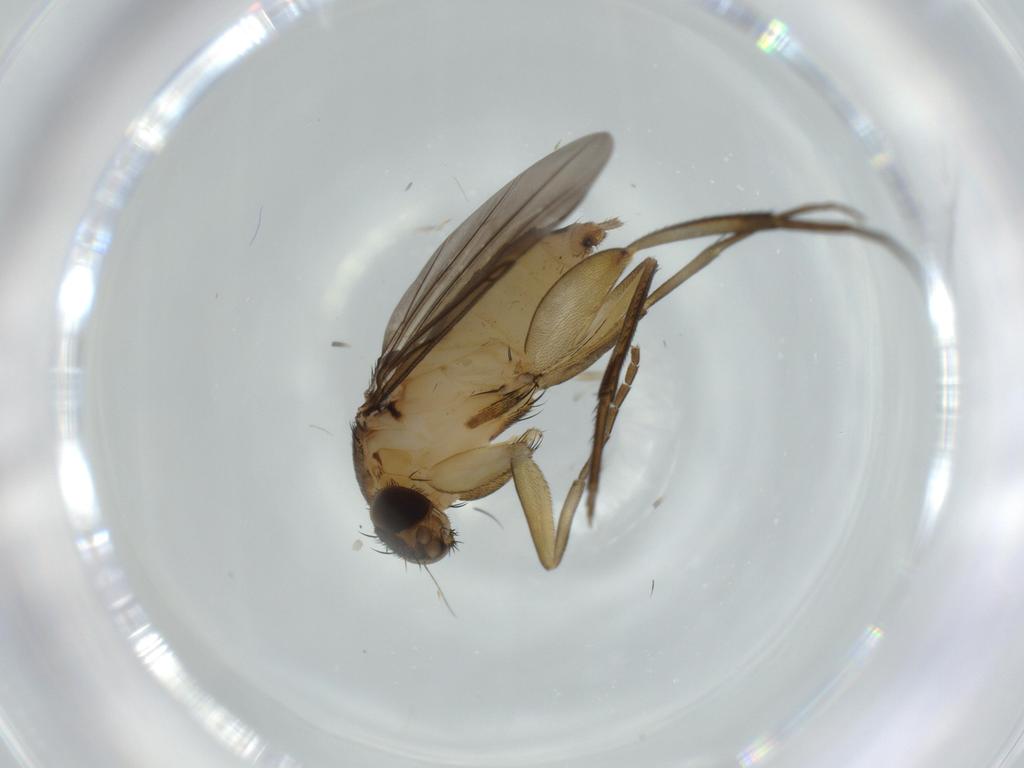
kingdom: Animalia
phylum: Arthropoda
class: Insecta
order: Diptera
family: Phoridae
